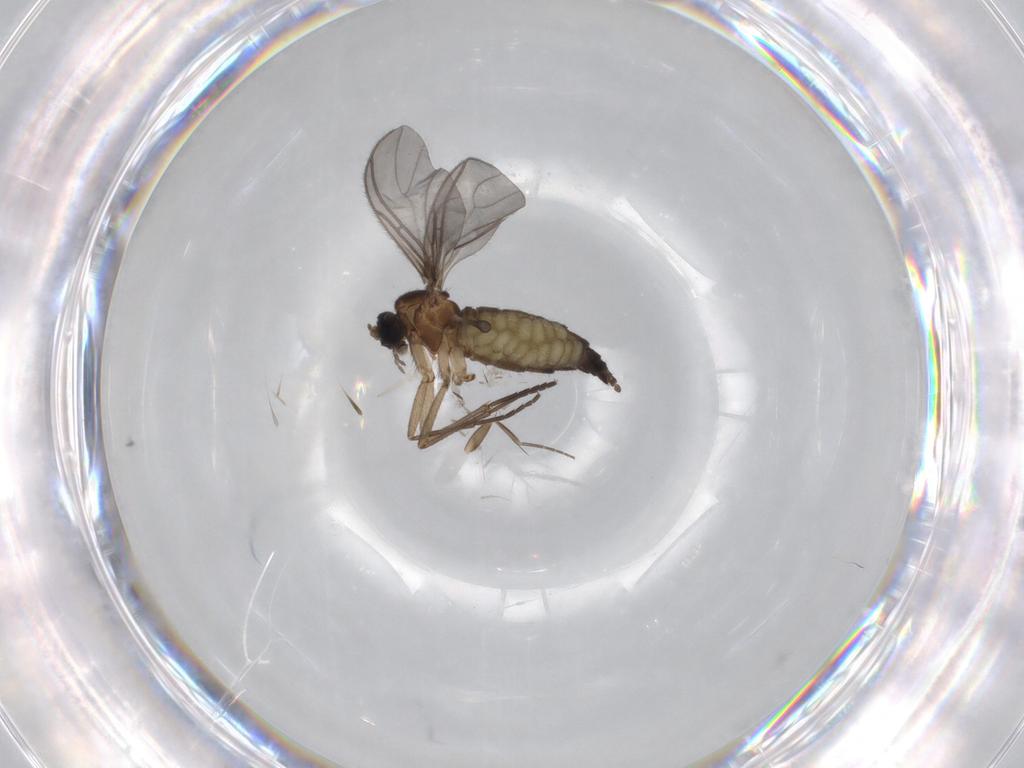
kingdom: Animalia
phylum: Arthropoda
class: Insecta
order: Diptera
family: Sciaridae
